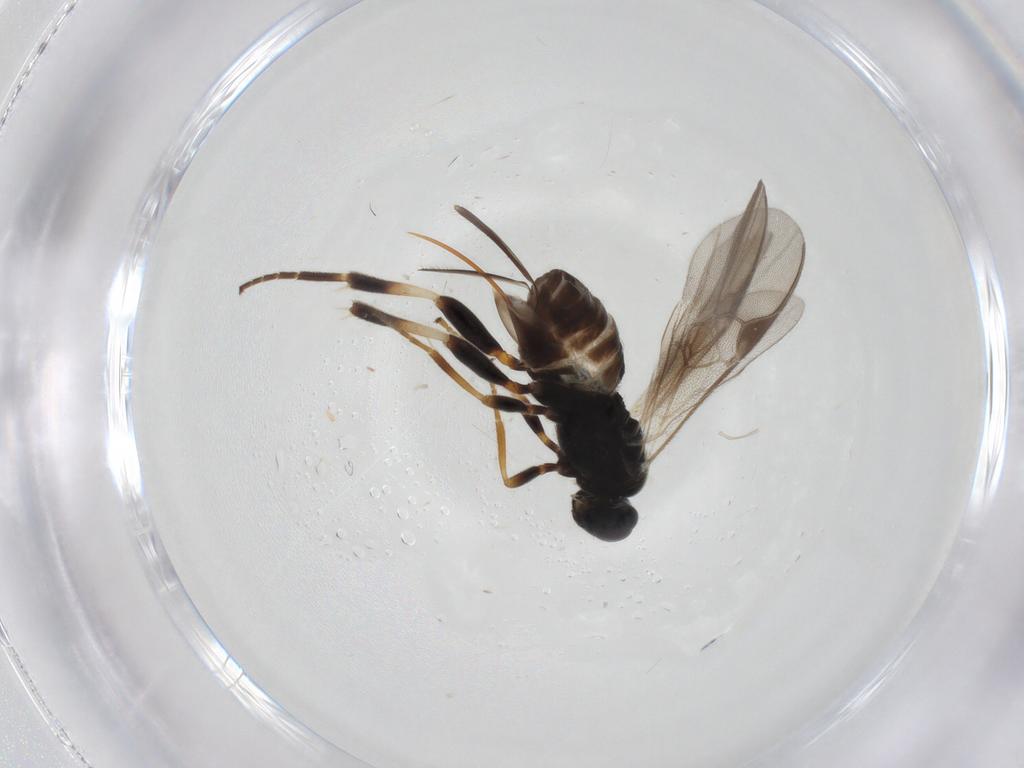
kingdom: Animalia
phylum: Arthropoda
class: Insecta
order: Hymenoptera
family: Braconidae
